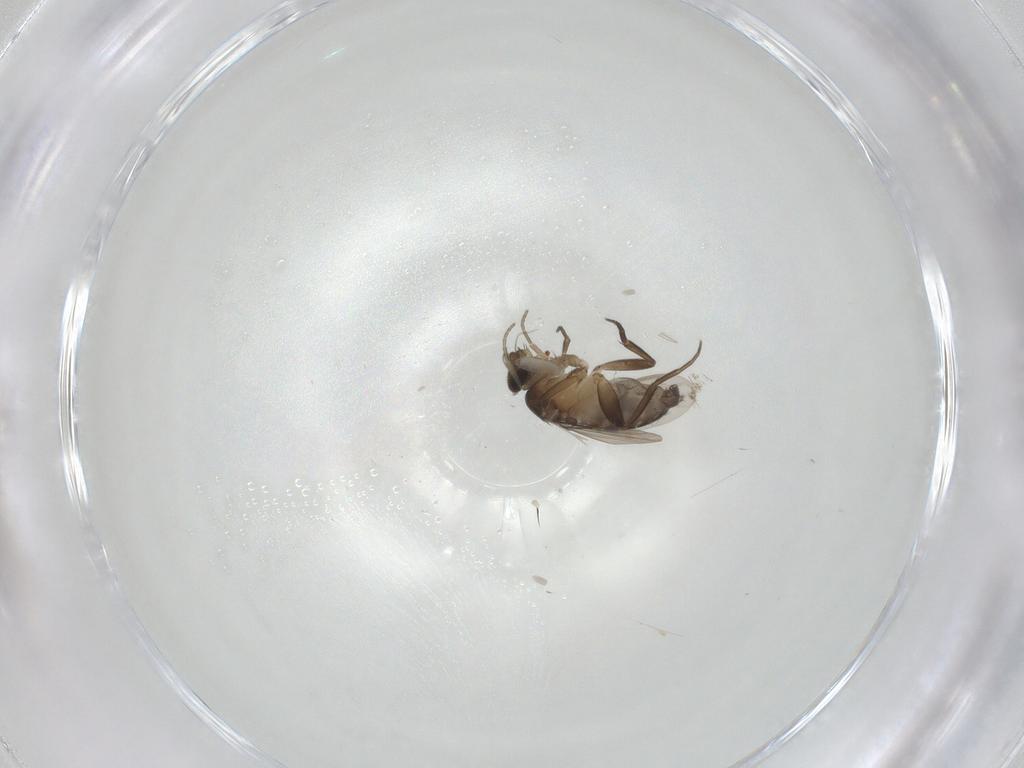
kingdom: Animalia
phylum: Arthropoda
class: Insecta
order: Diptera
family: Phoridae
